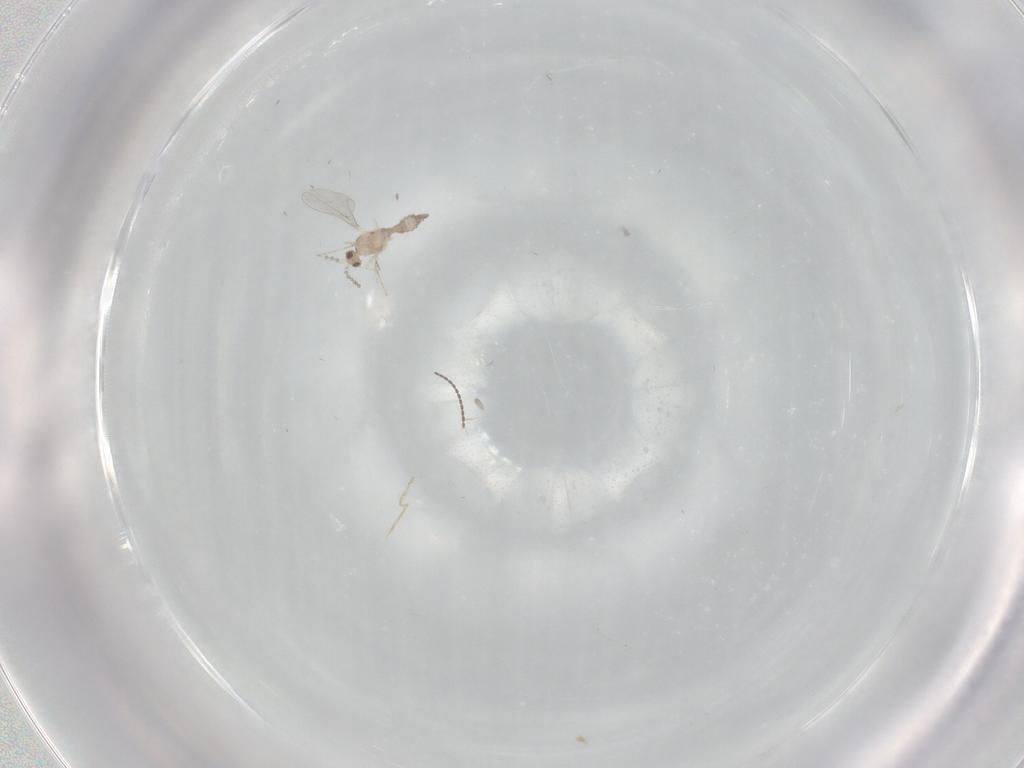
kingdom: Animalia
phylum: Arthropoda
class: Insecta
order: Diptera
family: Cecidomyiidae
